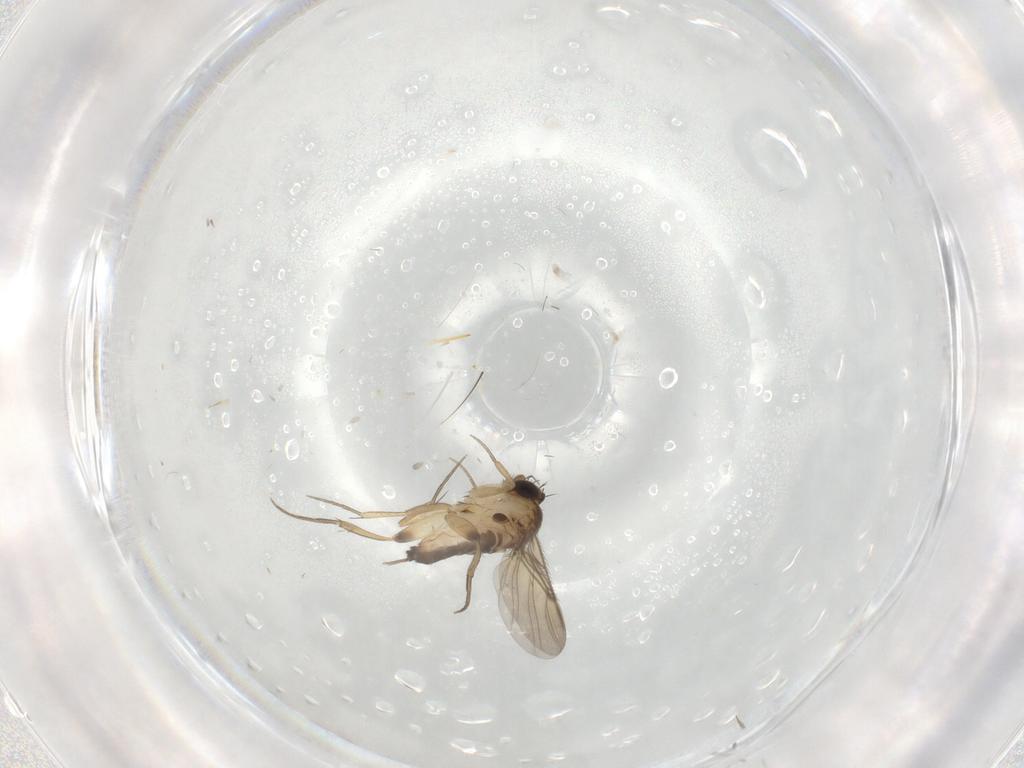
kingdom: Animalia
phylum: Arthropoda
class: Insecta
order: Diptera
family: Phoridae
